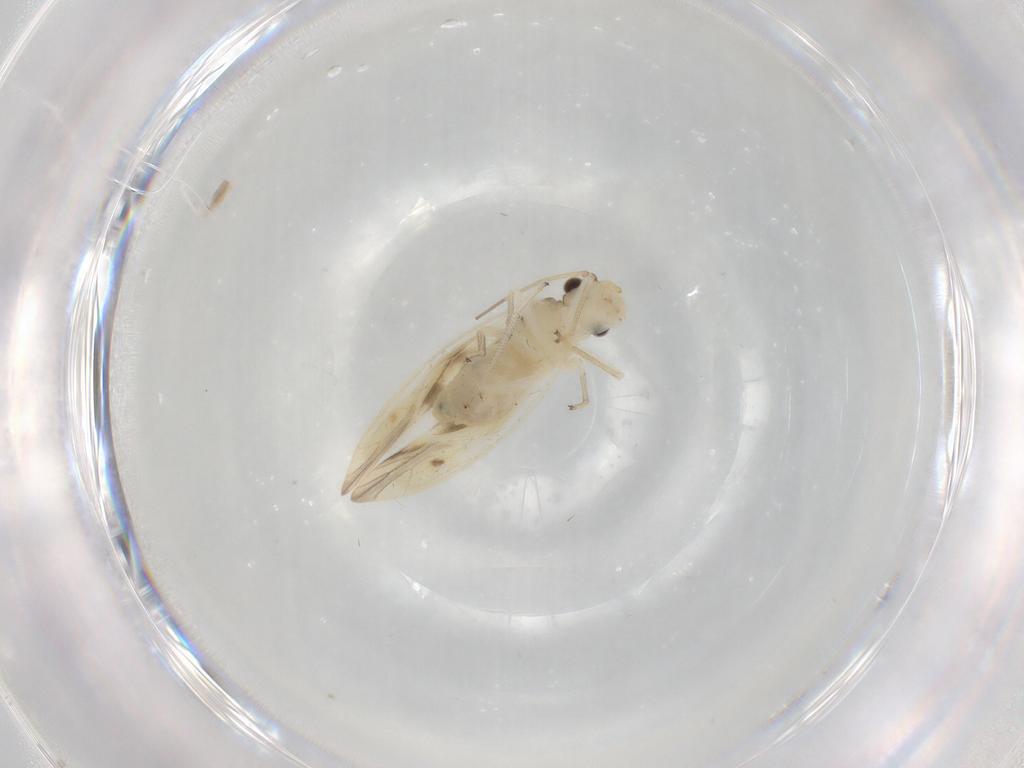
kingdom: Animalia
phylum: Arthropoda
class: Insecta
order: Psocodea
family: Caeciliusidae
